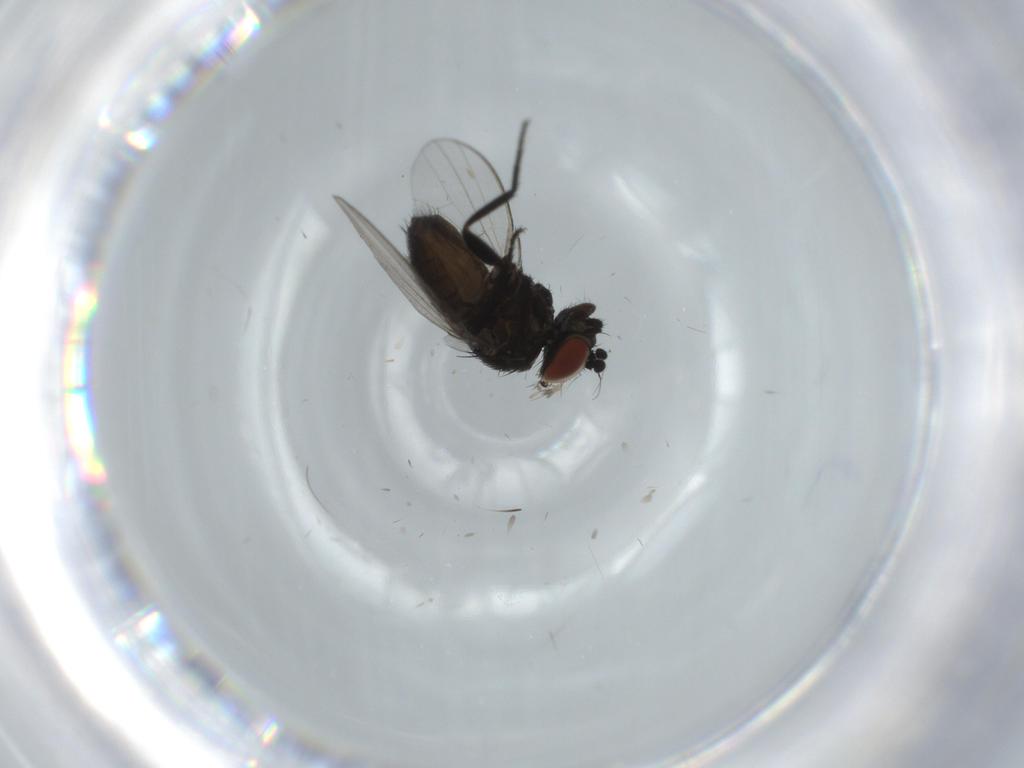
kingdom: Animalia
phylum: Arthropoda
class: Insecta
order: Diptera
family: Milichiidae
